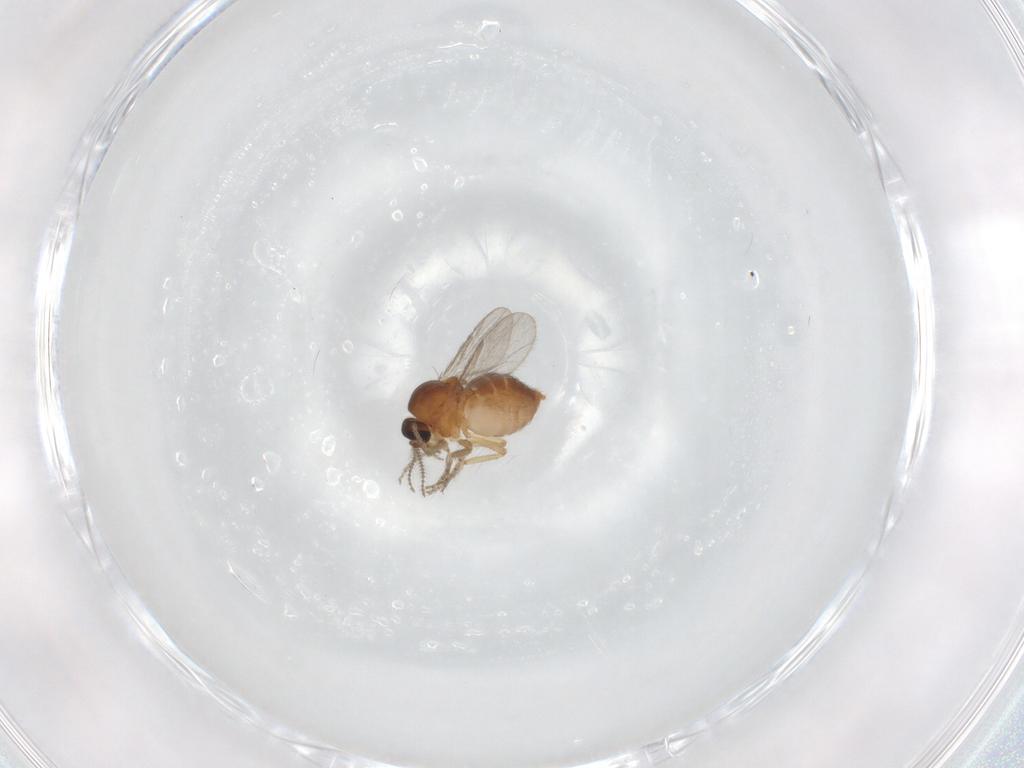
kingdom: Animalia
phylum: Arthropoda
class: Insecta
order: Diptera
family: Ceratopogonidae
